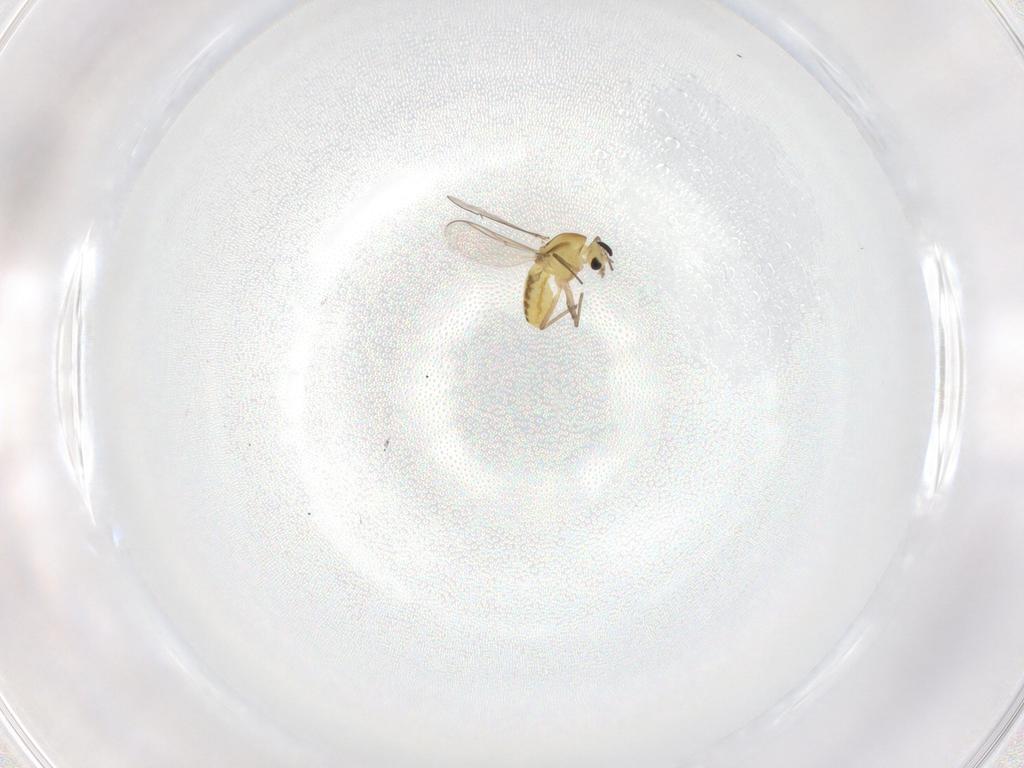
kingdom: Animalia
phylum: Arthropoda
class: Insecta
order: Diptera
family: Chironomidae
